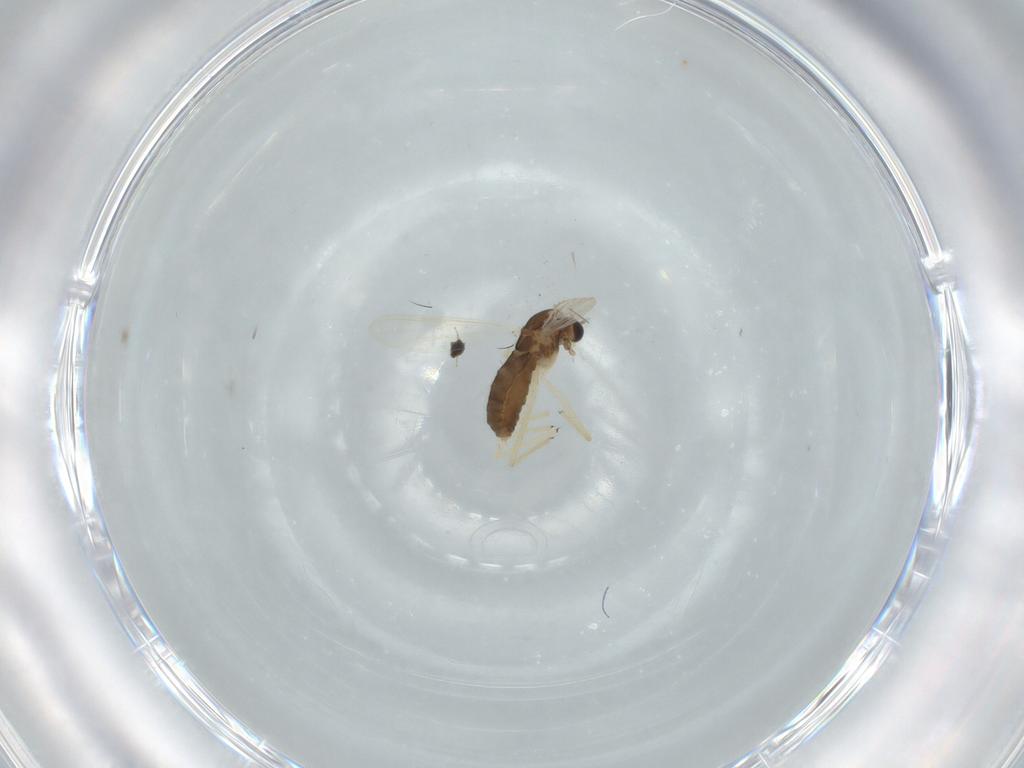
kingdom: Animalia
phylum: Arthropoda
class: Insecta
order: Diptera
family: Chironomidae
